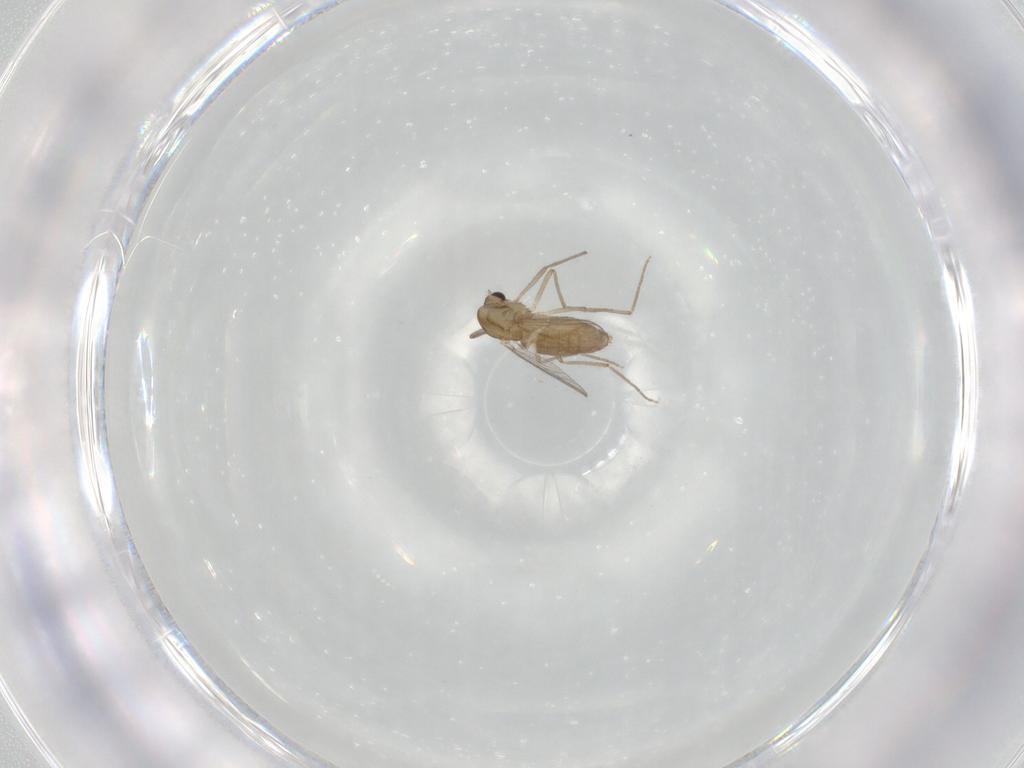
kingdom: Animalia
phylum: Arthropoda
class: Insecta
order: Diptera
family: Chironomidae
